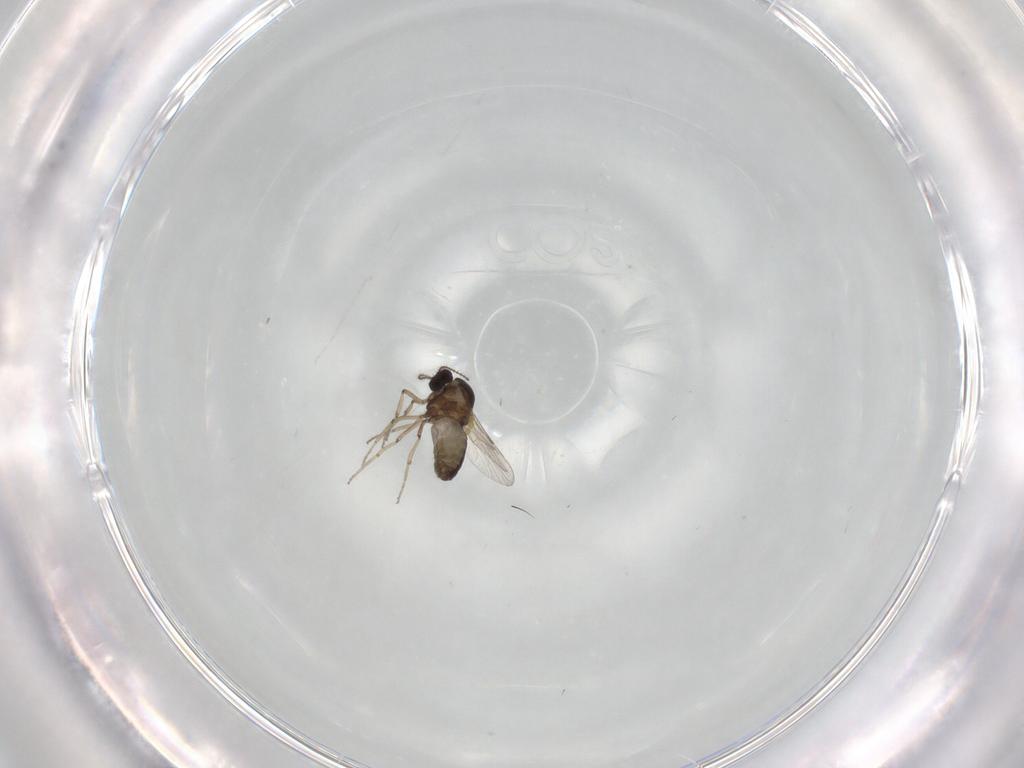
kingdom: Animalia
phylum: Arthropoda
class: Insecta
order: Diptera
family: Ceratopogonidae
